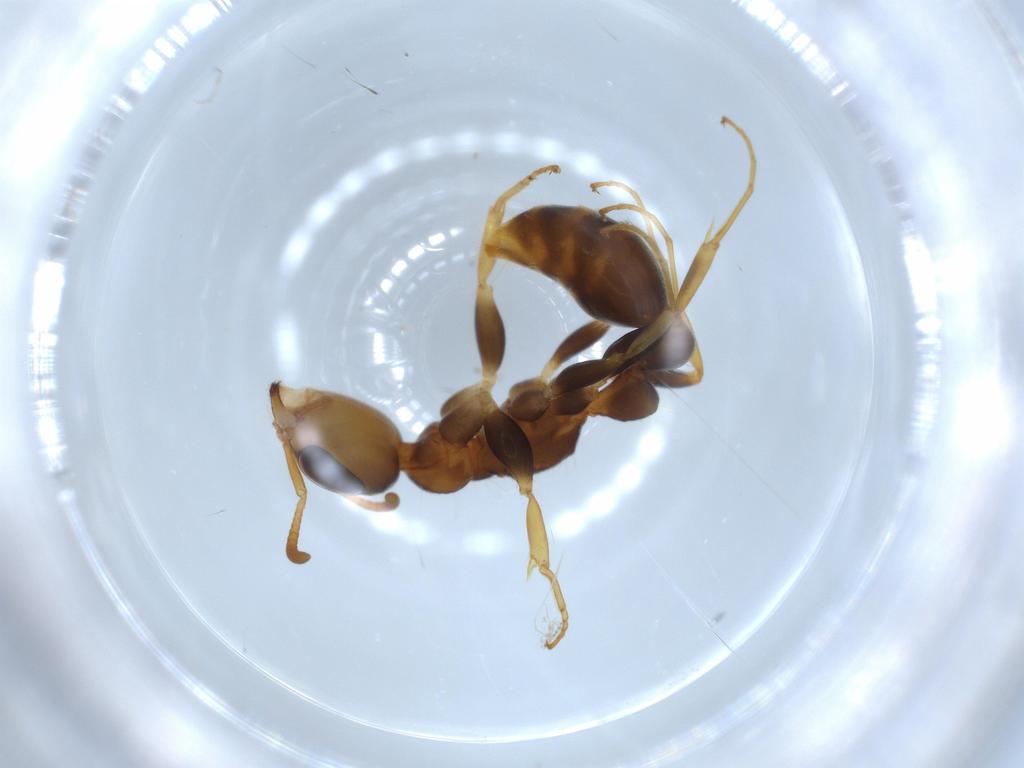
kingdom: Animalia
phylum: Arthropoda
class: Insecta
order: Hymenoptera
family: Formicidae
